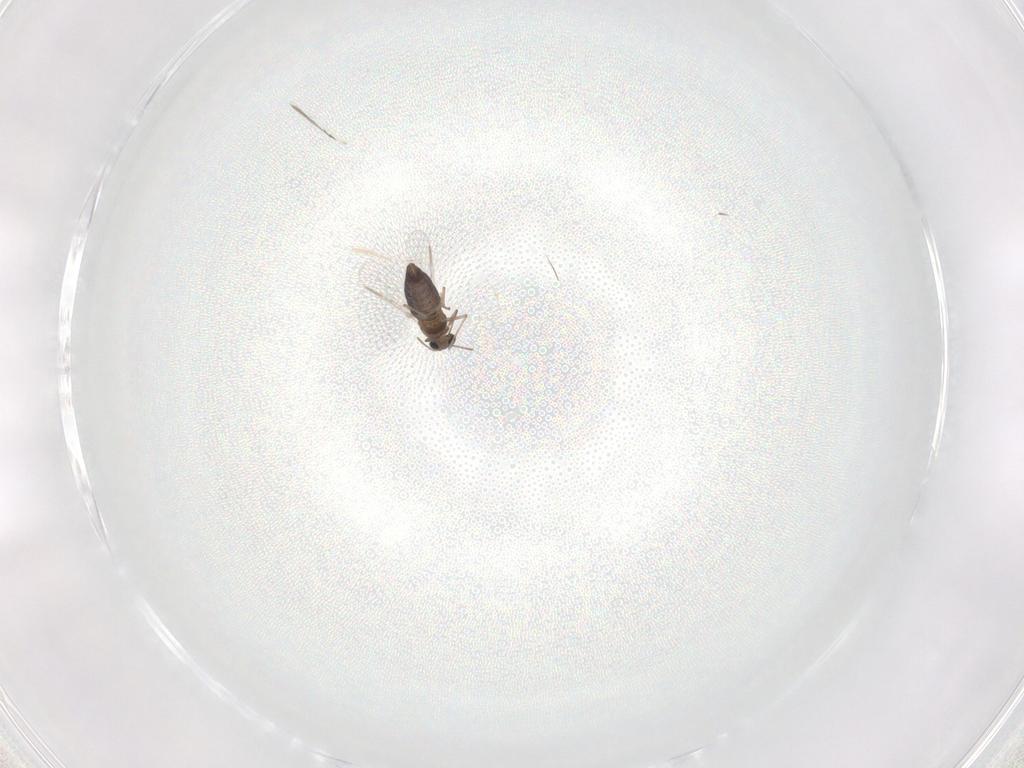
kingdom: Animalia
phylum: Arthropoda
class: Insecta
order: Diptera
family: Chironomidae
